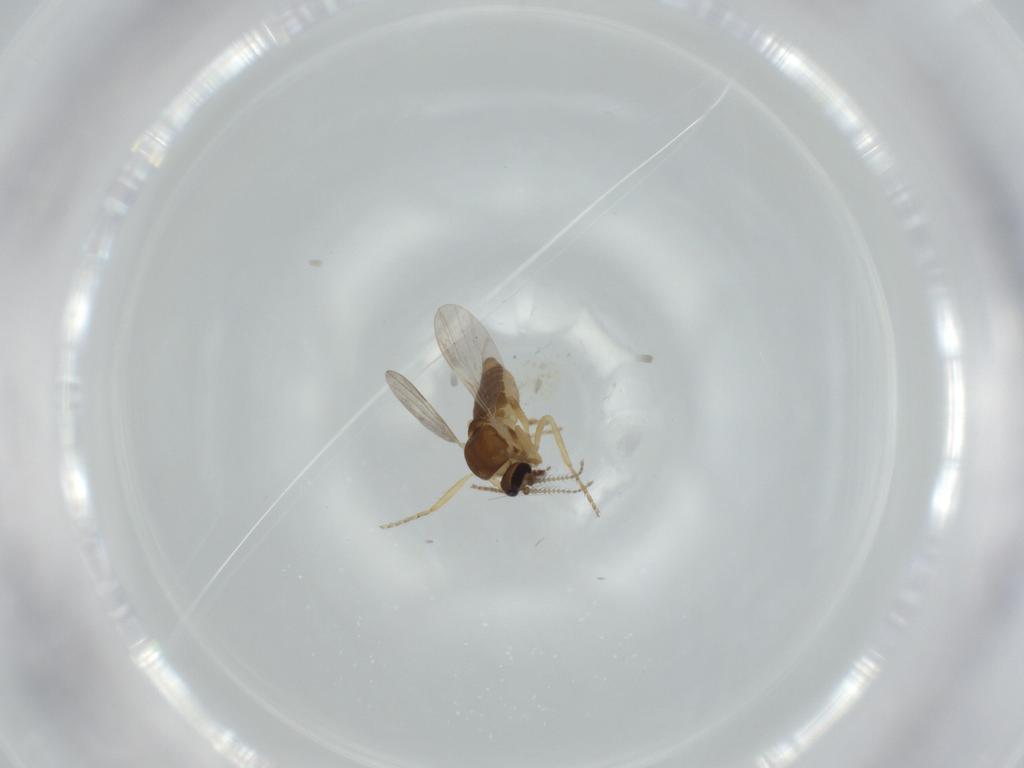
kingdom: Animalia
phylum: Arthropoda
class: Insecta
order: Diptera
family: Ceratopogonidae
